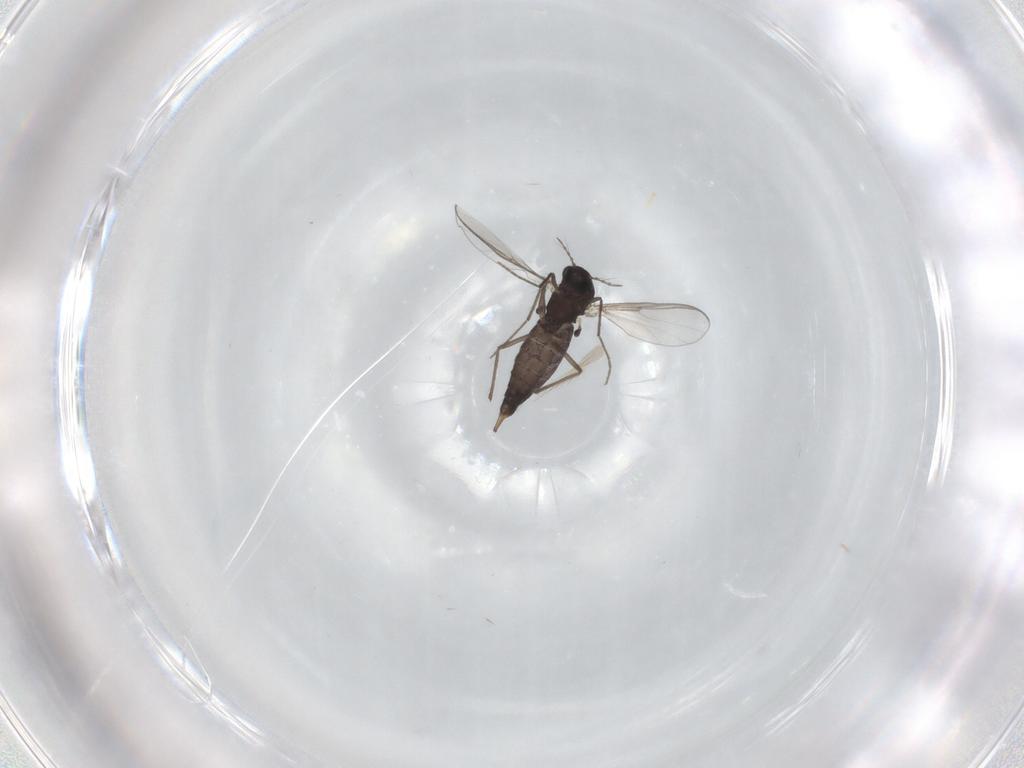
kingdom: Animalia
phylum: Arthropoda
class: Insecta
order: Diptera
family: Chironomidae
